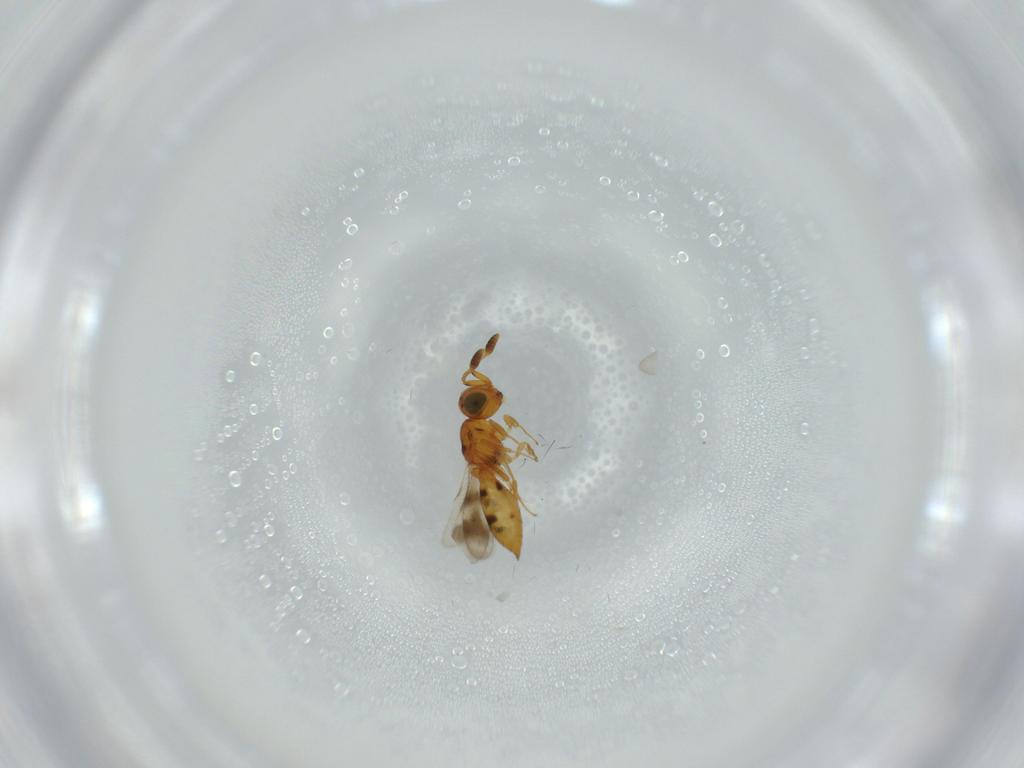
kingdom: Animalia
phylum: Arthropoda
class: Insecta
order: Hymenoptera
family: Scelionidae
